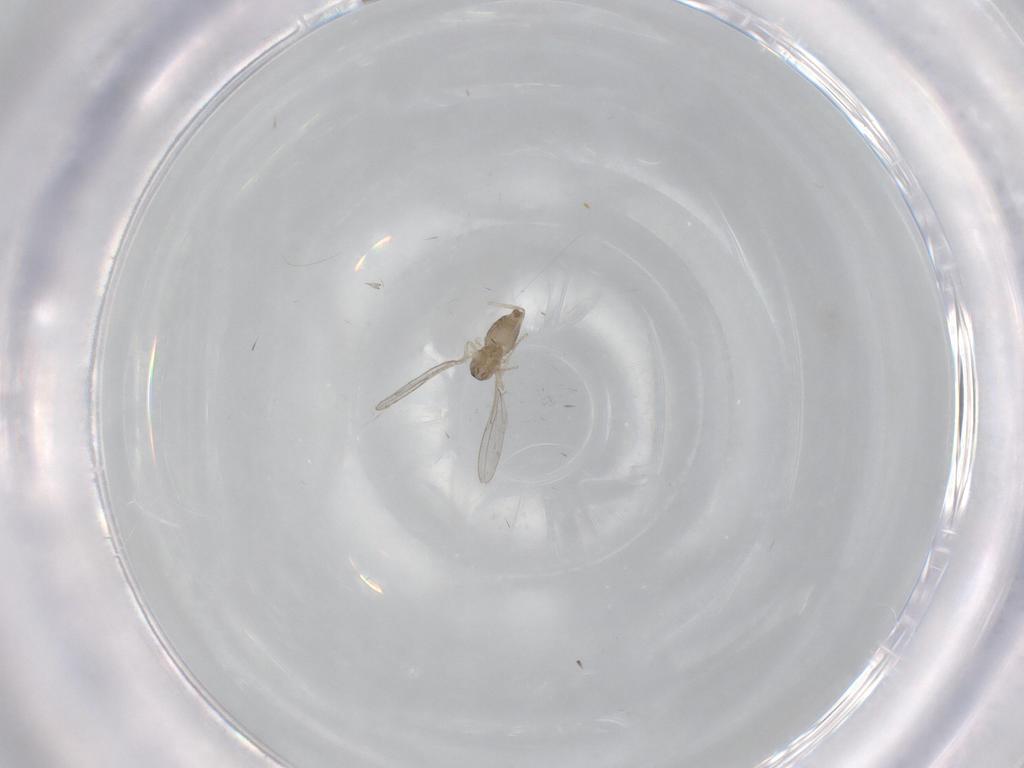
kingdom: Animalia
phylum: Arthropoda
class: Insecta
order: Diptera
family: Cecidomyiidae
